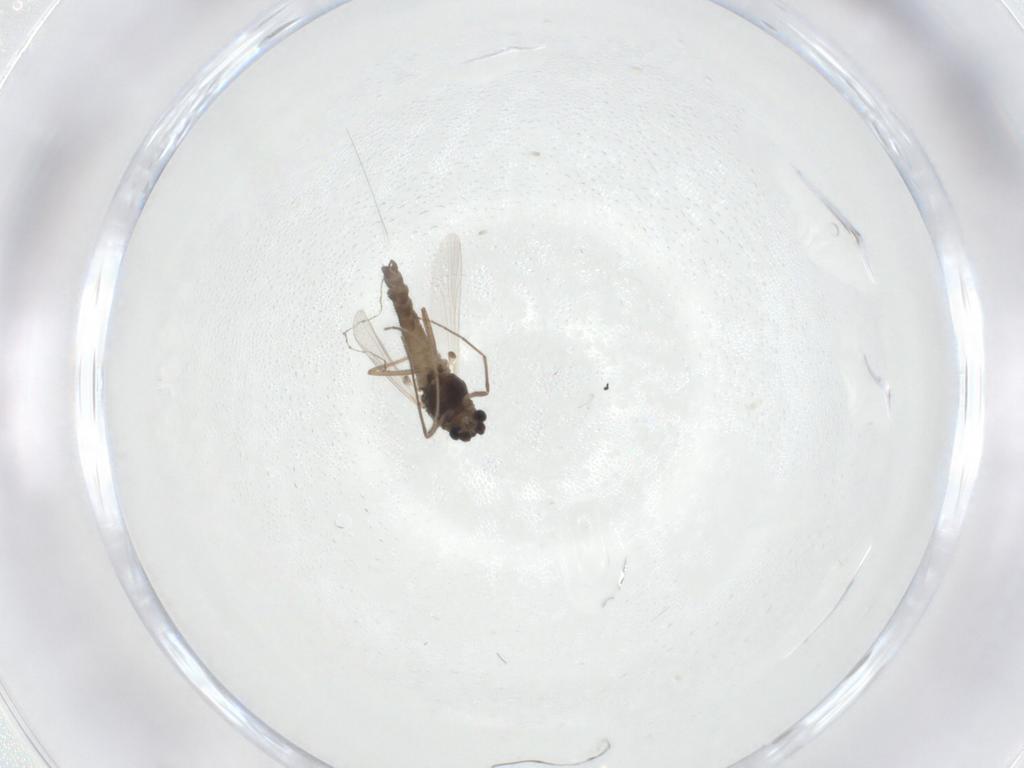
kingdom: Animalia
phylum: Arthropoda
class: Insecta
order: Diptera
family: Chironomidae
